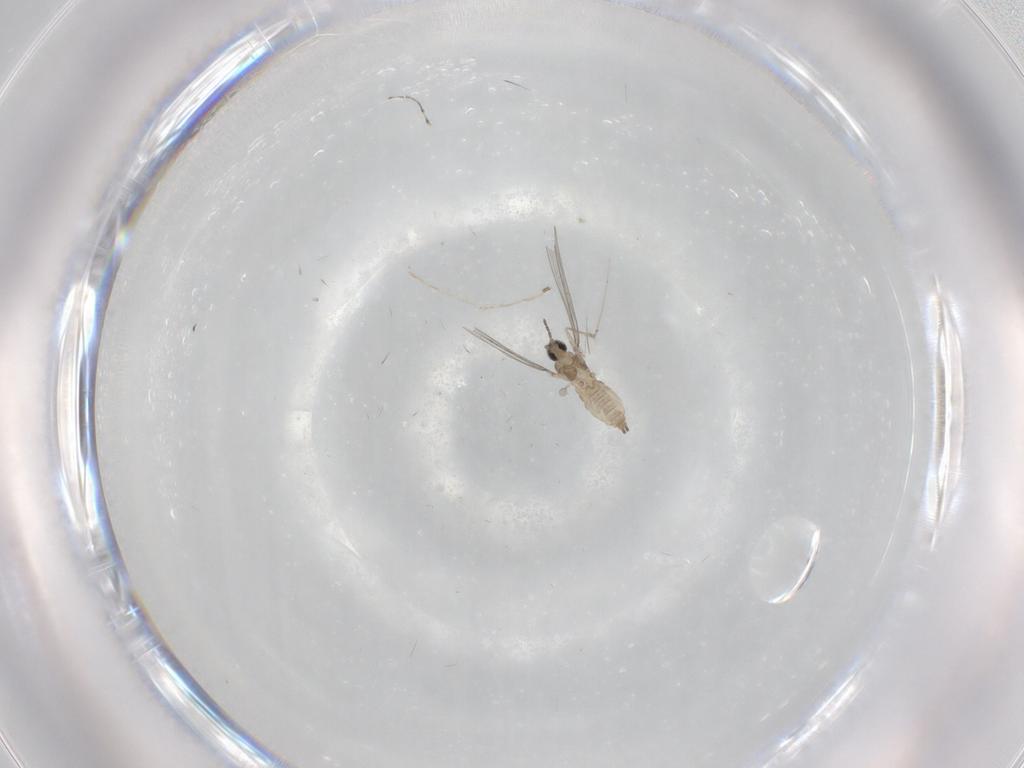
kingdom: Animalia
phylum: Arthropoda
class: Insecta
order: Diptera
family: Cecidomyiidae
